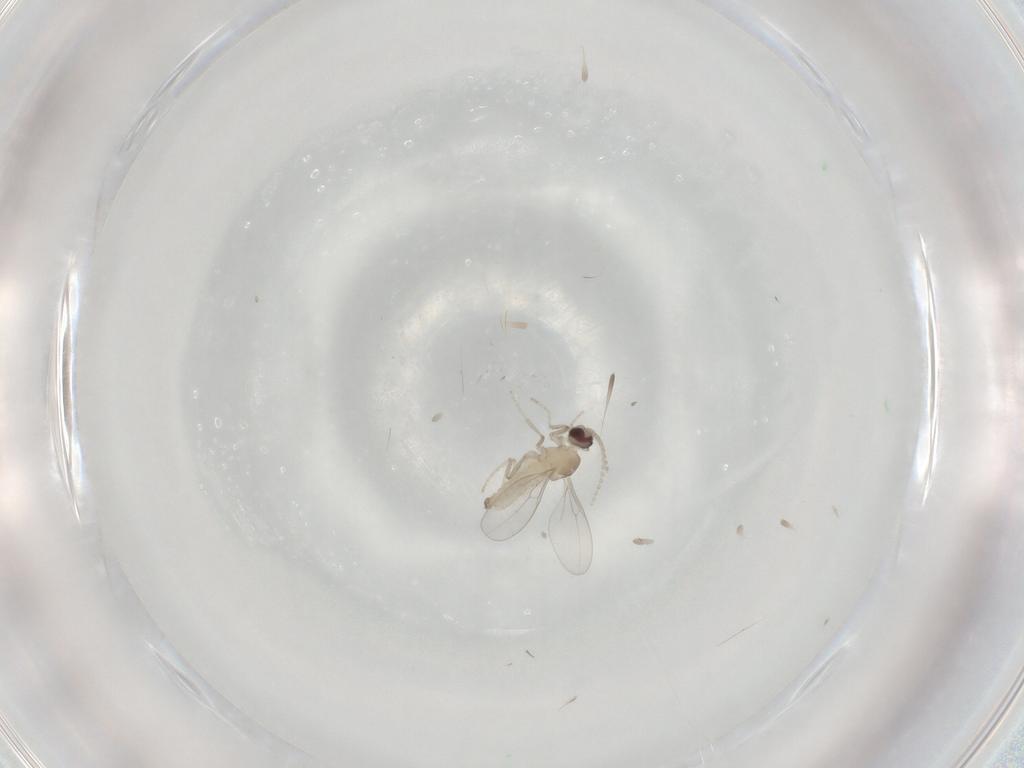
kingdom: Animalia
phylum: Arthropoda
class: Insecta
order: Diptera
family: Cecidomyiidae
